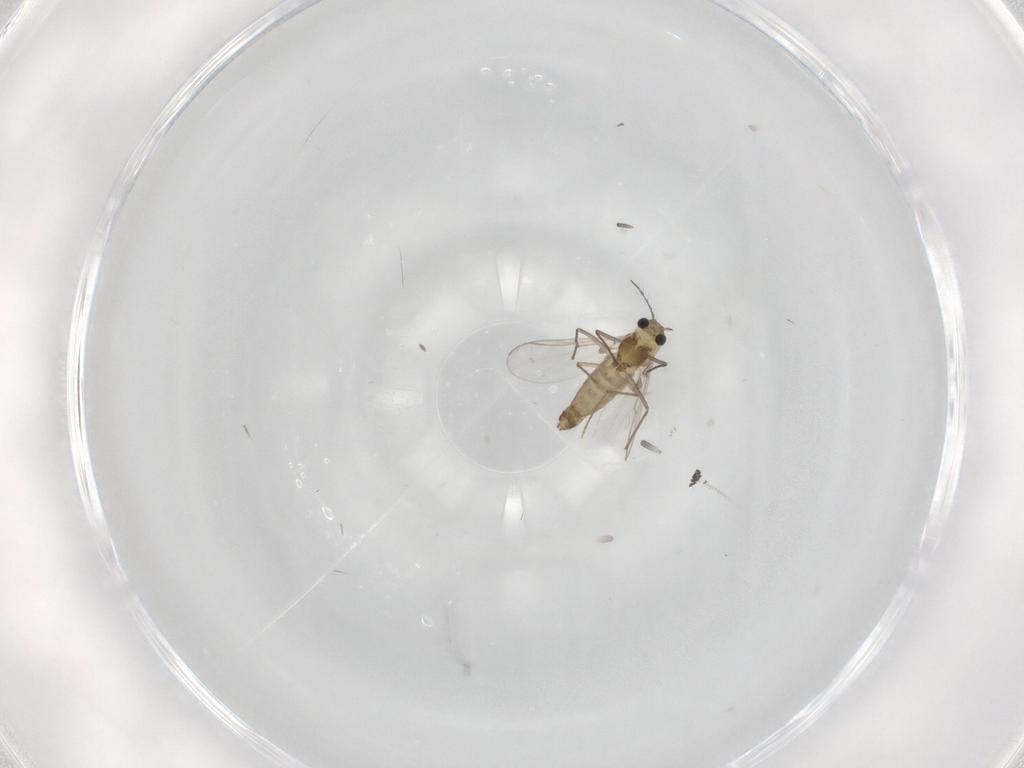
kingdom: Animalia
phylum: Arthropoda
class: Insecta
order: Diptera
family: Chironomidae
